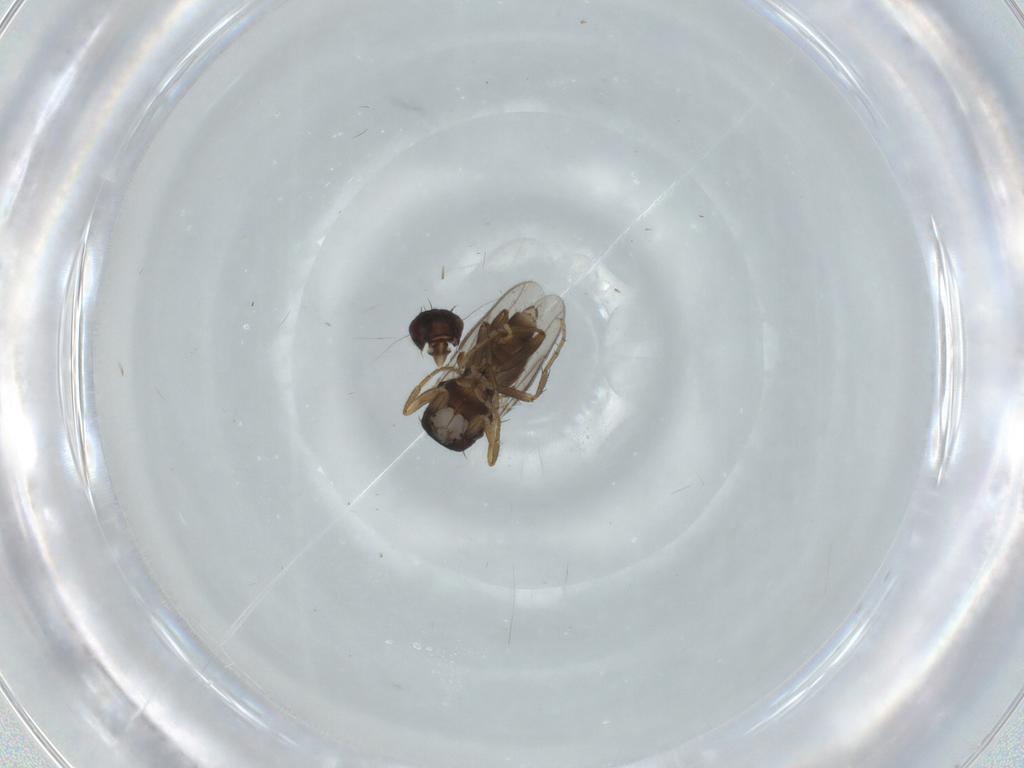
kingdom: Animalia
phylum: Arthropoda
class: Insecta
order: Diptera
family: Sphaeroceridae
